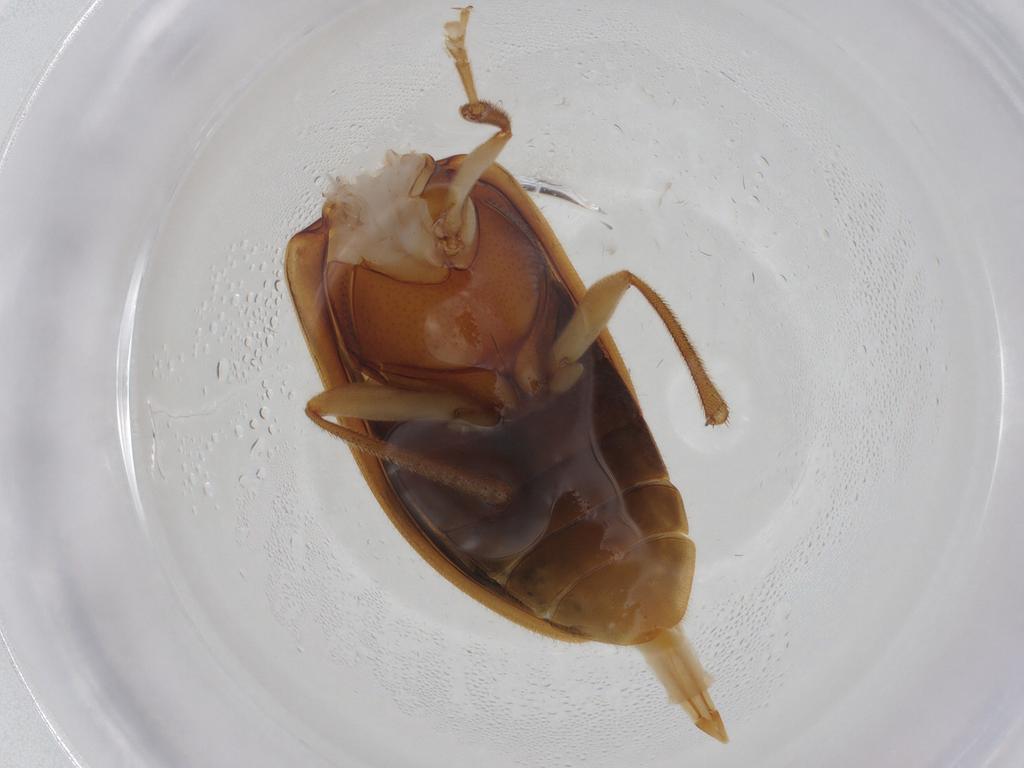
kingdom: Animalia
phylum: Arthropoda
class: Insecta
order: Coleoptera
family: Ptilodactylidae
